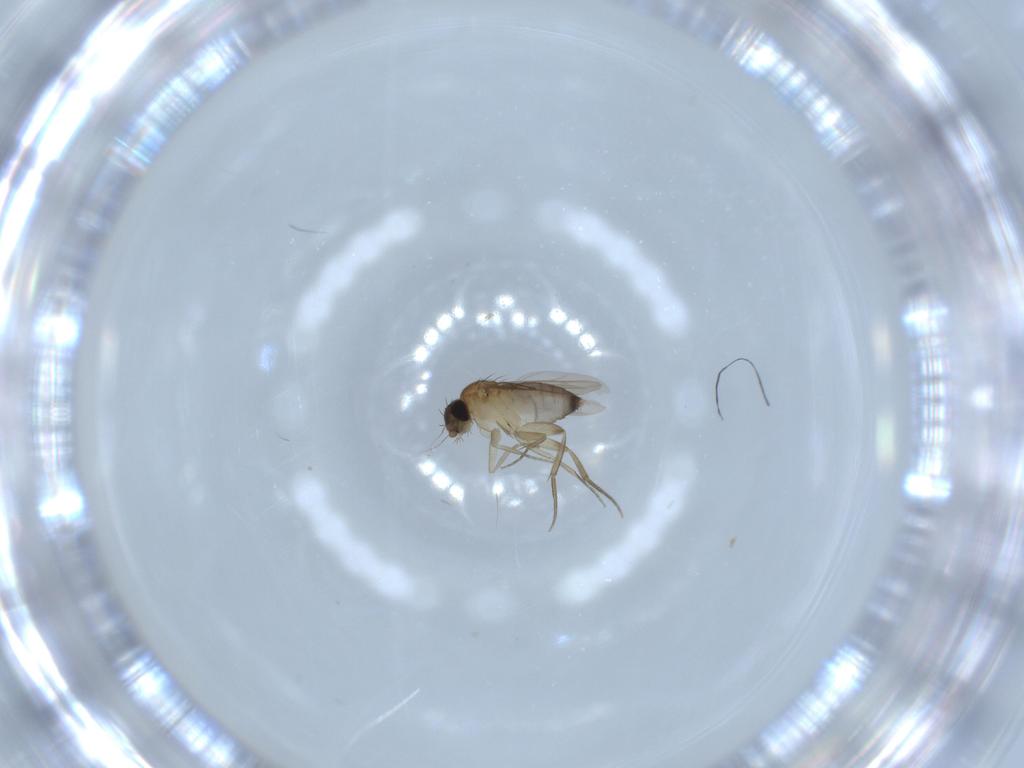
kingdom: Animalia
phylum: Arthropoda
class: Insecta
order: Diptera
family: Phoridae
